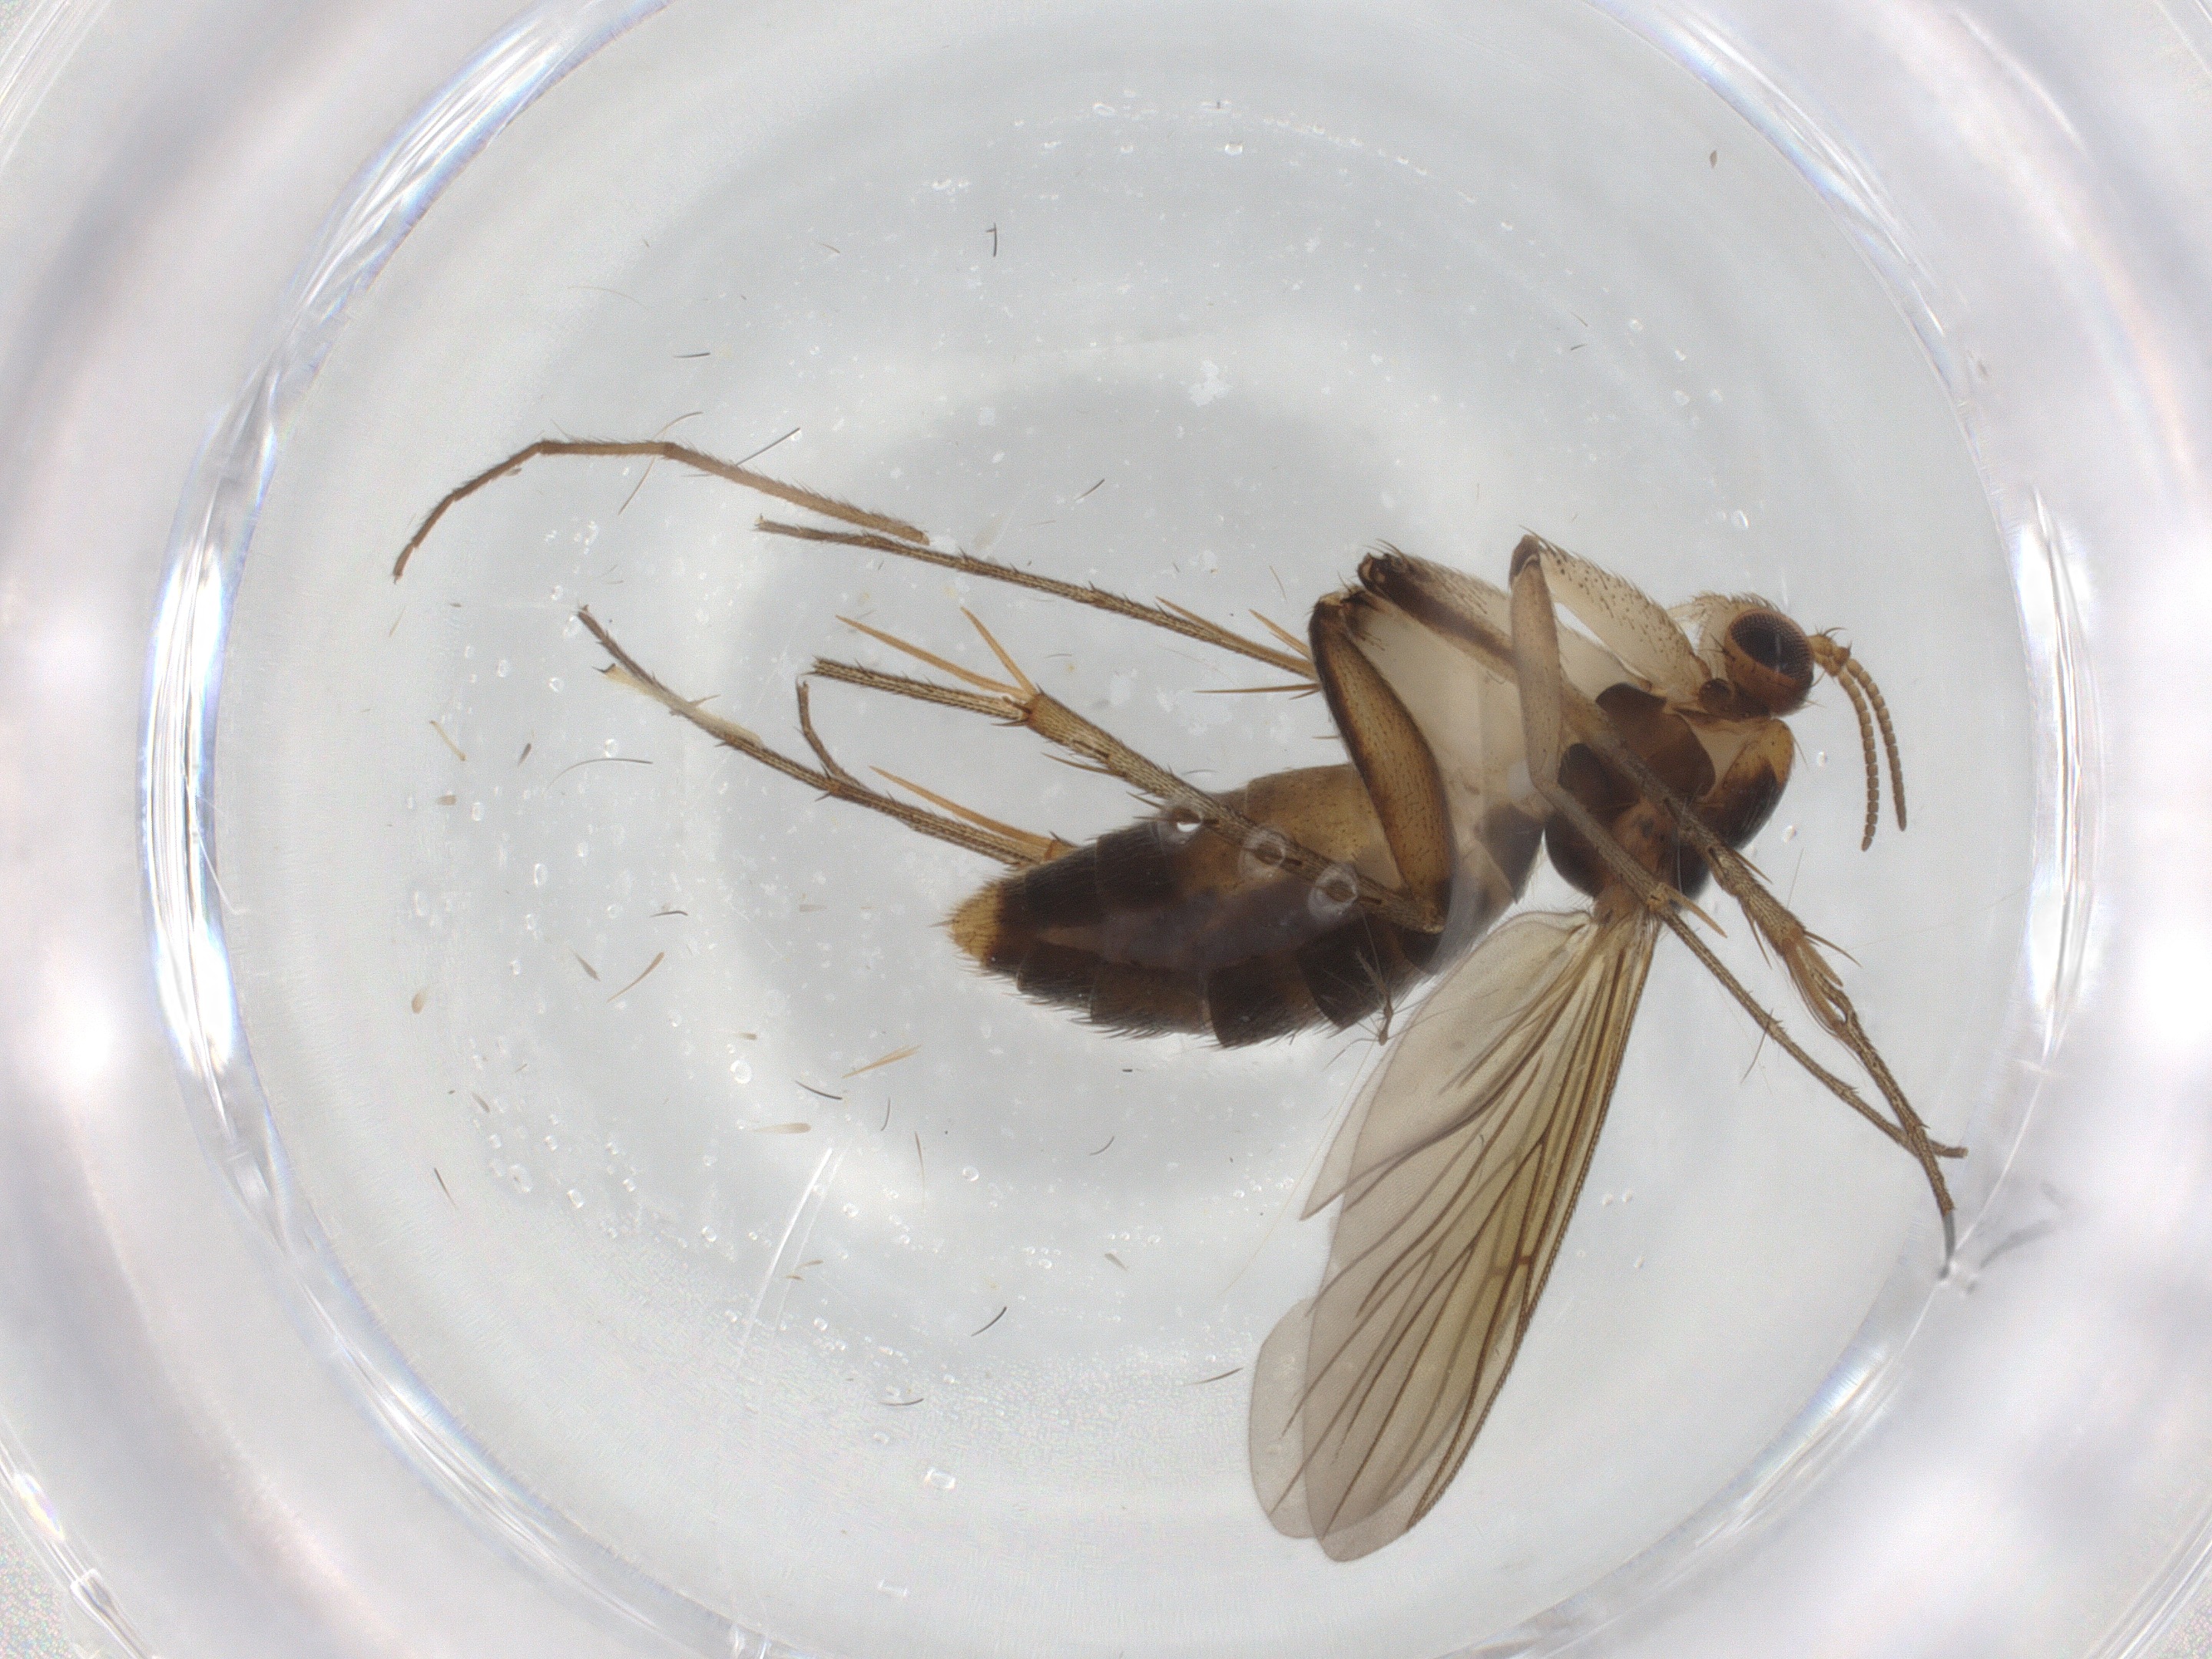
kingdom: Animalia
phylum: Arthropoda
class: Insecta
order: Diptera
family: Mycetophilidae
